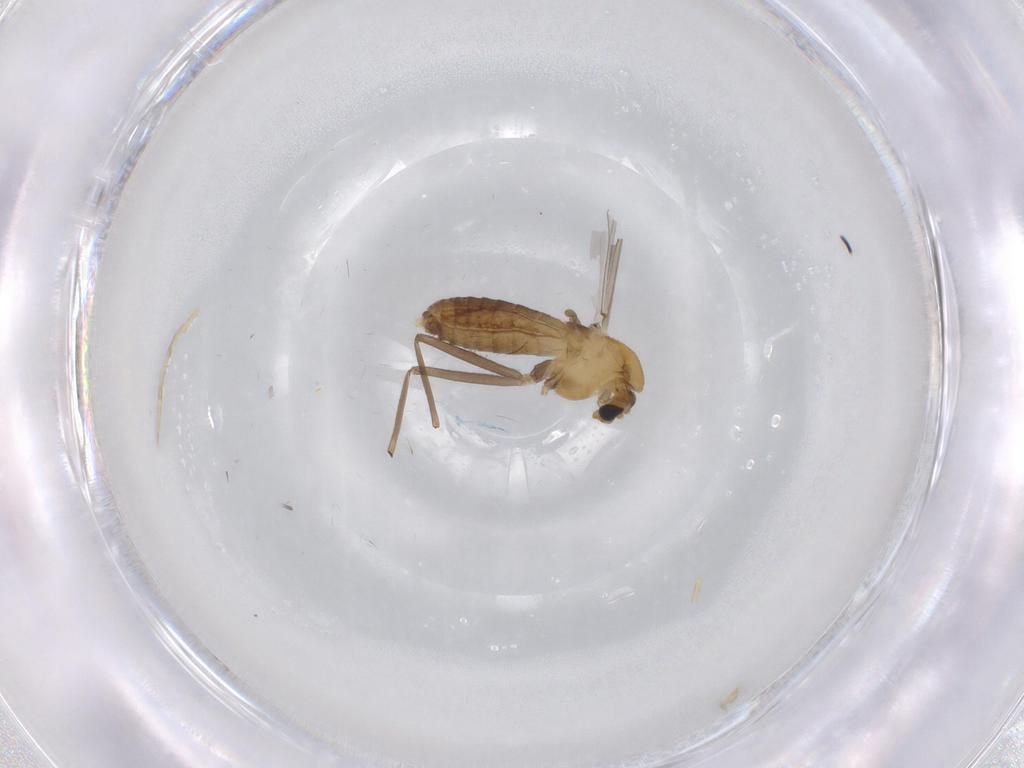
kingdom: Animalia
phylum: Arthropoda
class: Insecta
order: Diptera
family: Chironomidae
